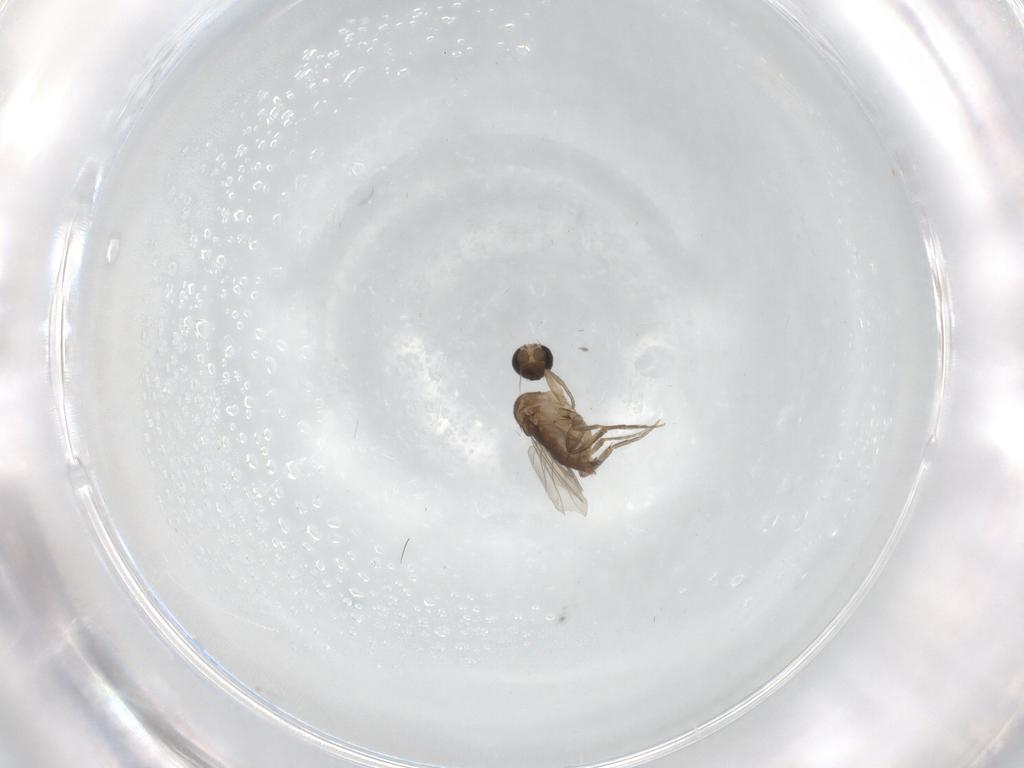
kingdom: Animalia
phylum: Arthropoda
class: Insecta
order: Diptera
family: Phoridae
